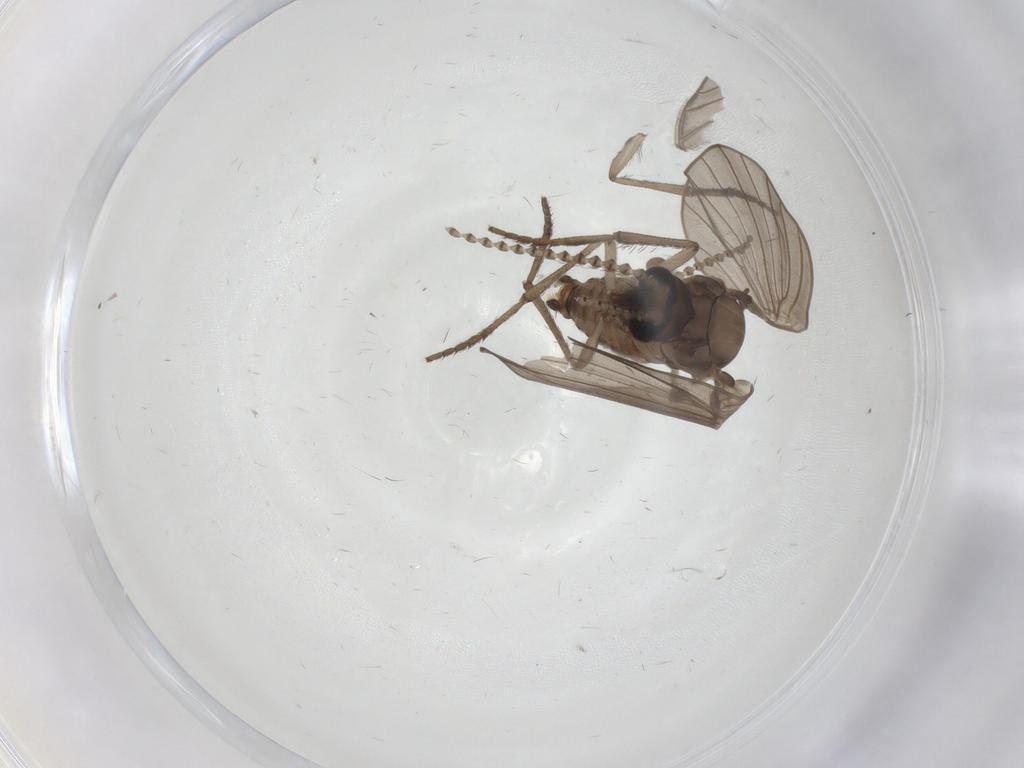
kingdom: Animalia
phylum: Arthropoda
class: Insecta
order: Diptera
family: Psychodidae
